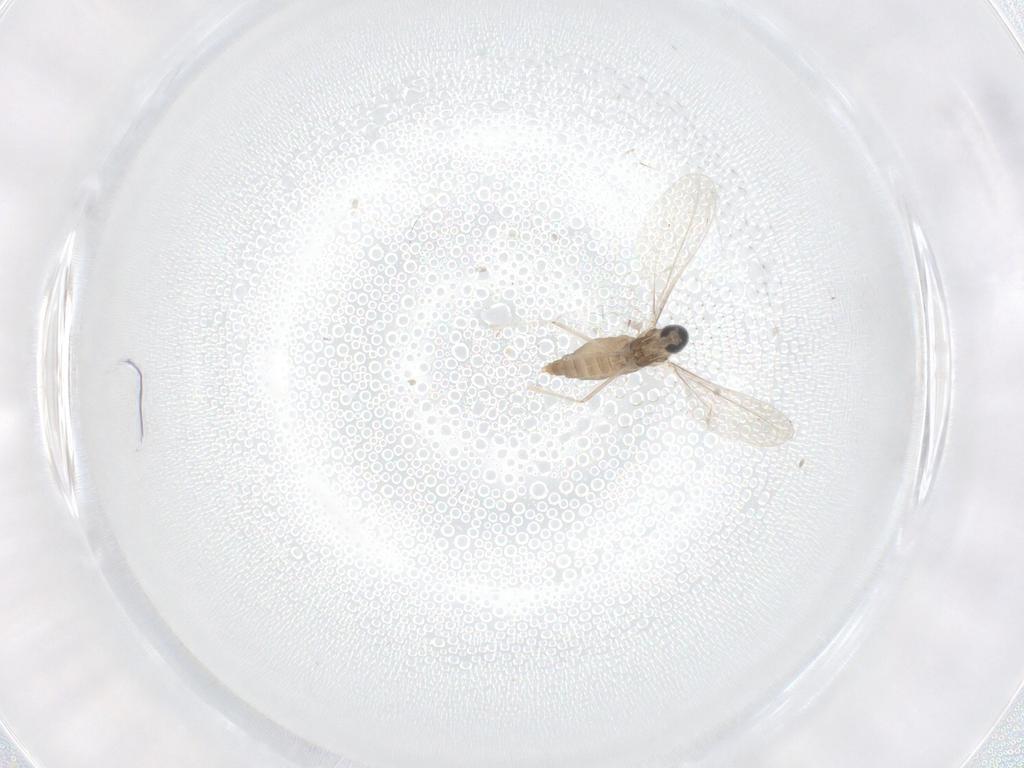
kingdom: Animalia
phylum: Arthropoda
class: Insecta
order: Diptera
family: Cecidomyiidae
